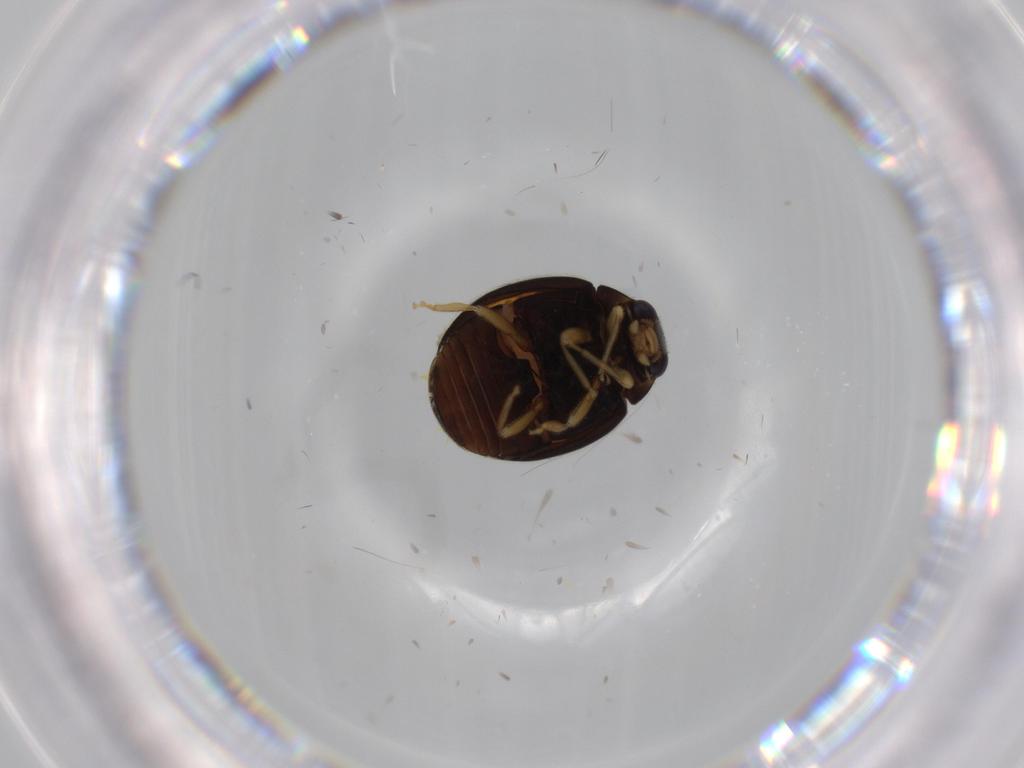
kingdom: Animalia
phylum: Arthropoda
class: Insecta
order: Coleoptera
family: Coccinellidae
